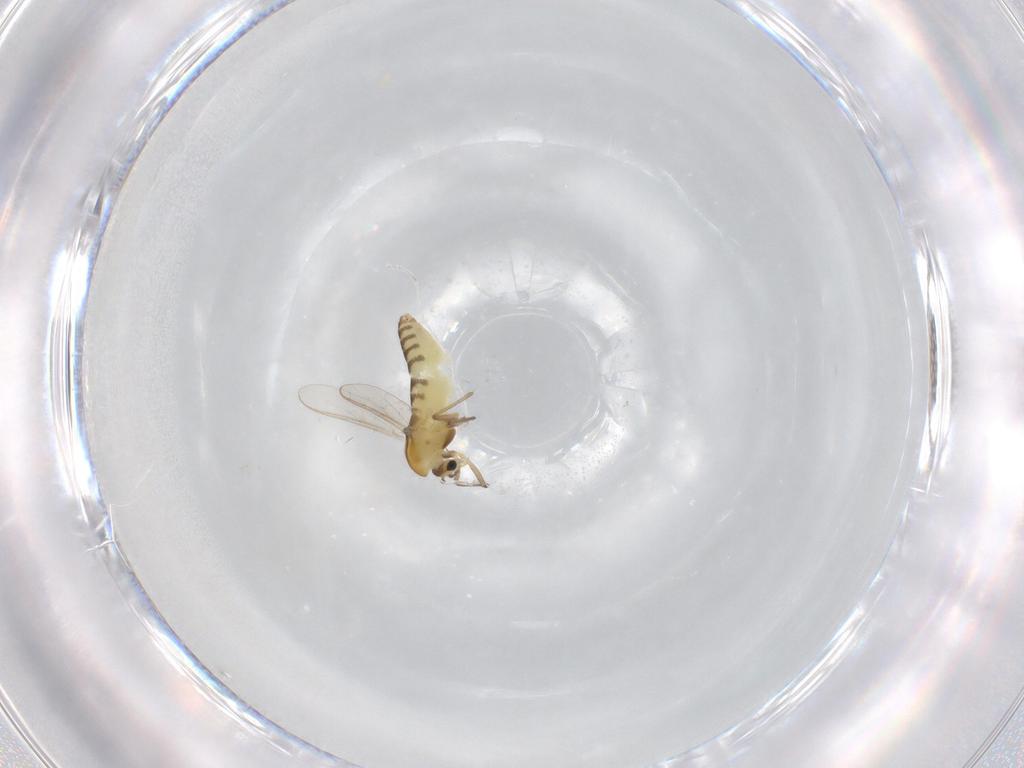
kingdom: Animalia
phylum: Arthropoda
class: Insecta
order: Diptera
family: Chironomidae
